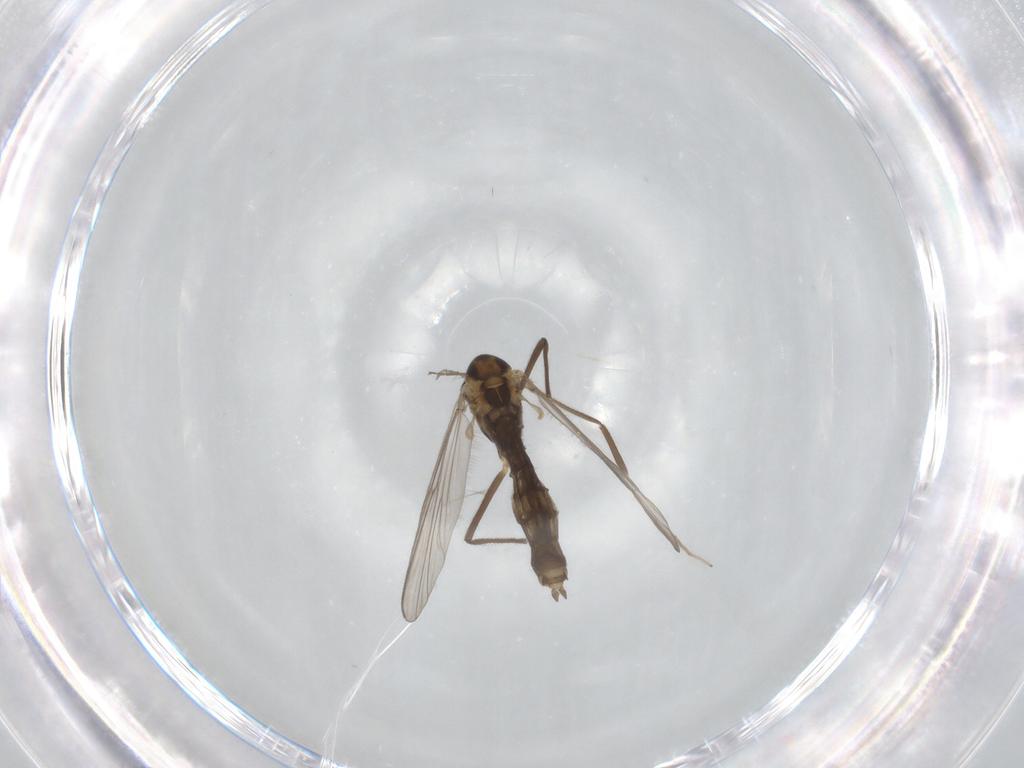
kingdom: Animalia
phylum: Arthropoda
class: Insecta
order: Diptera
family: Chironomidae
